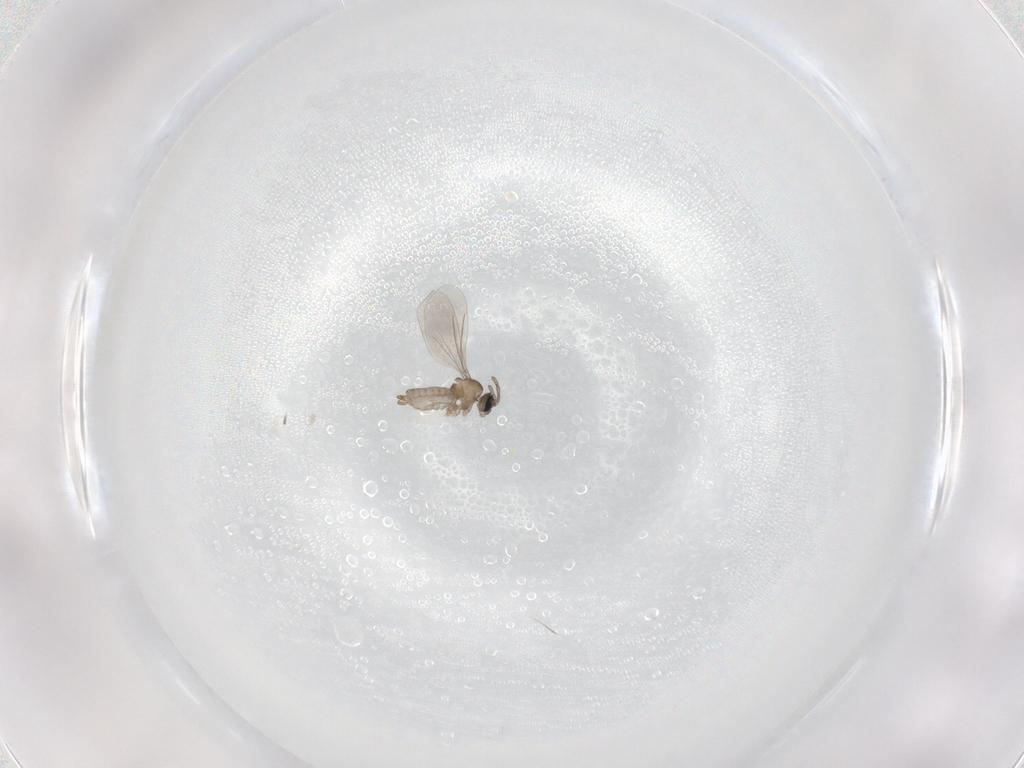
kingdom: Animalia
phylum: Arthropoda
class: Insecta
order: Diptera
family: Cecidomyiidae
